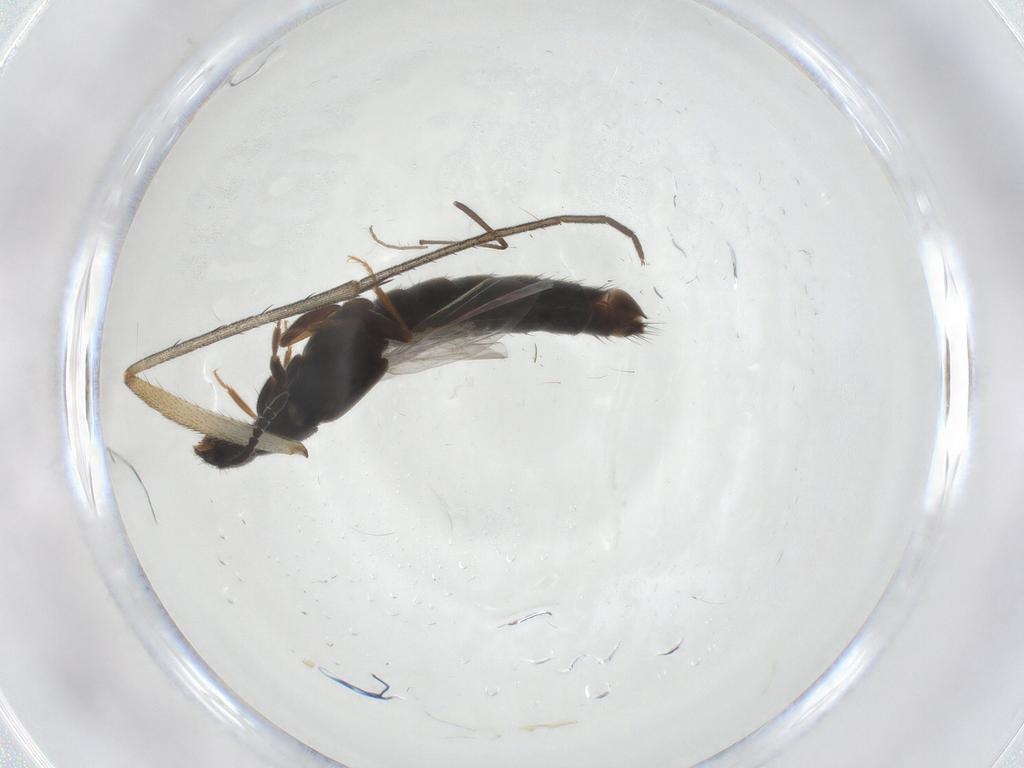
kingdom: Animalia
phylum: Arthropoda
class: Insecta
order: Coleoptera
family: Staphylinidae
